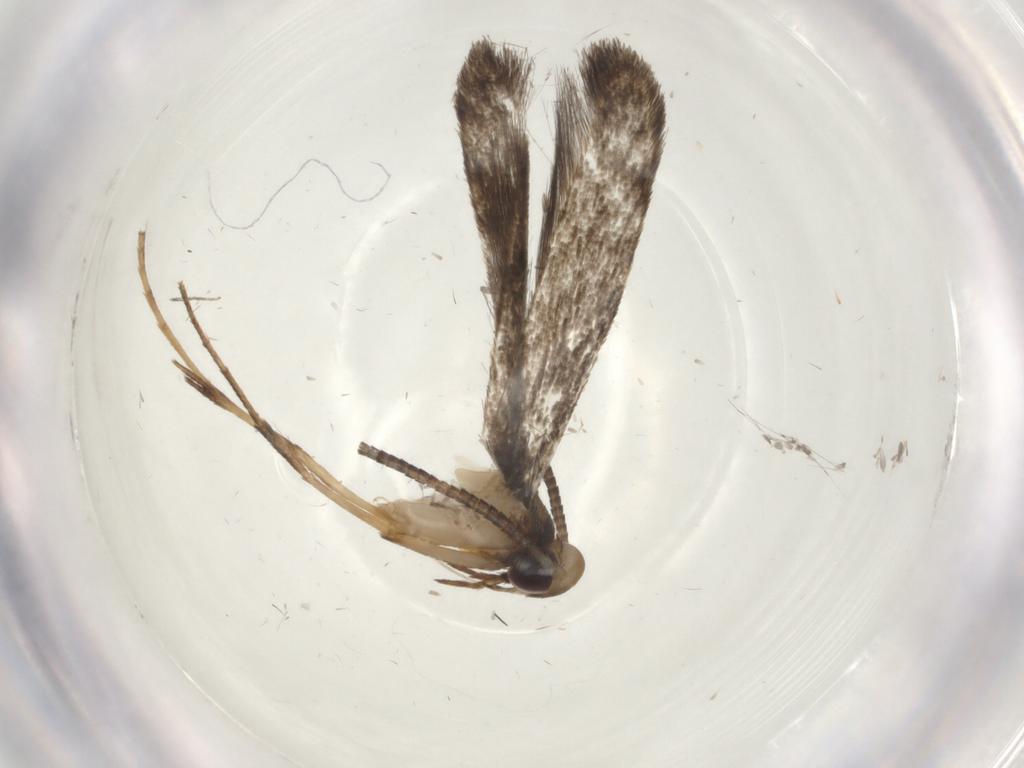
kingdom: Animalia
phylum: Arthropoda
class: Insecta
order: Lepidoptera
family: Gracillariidae
